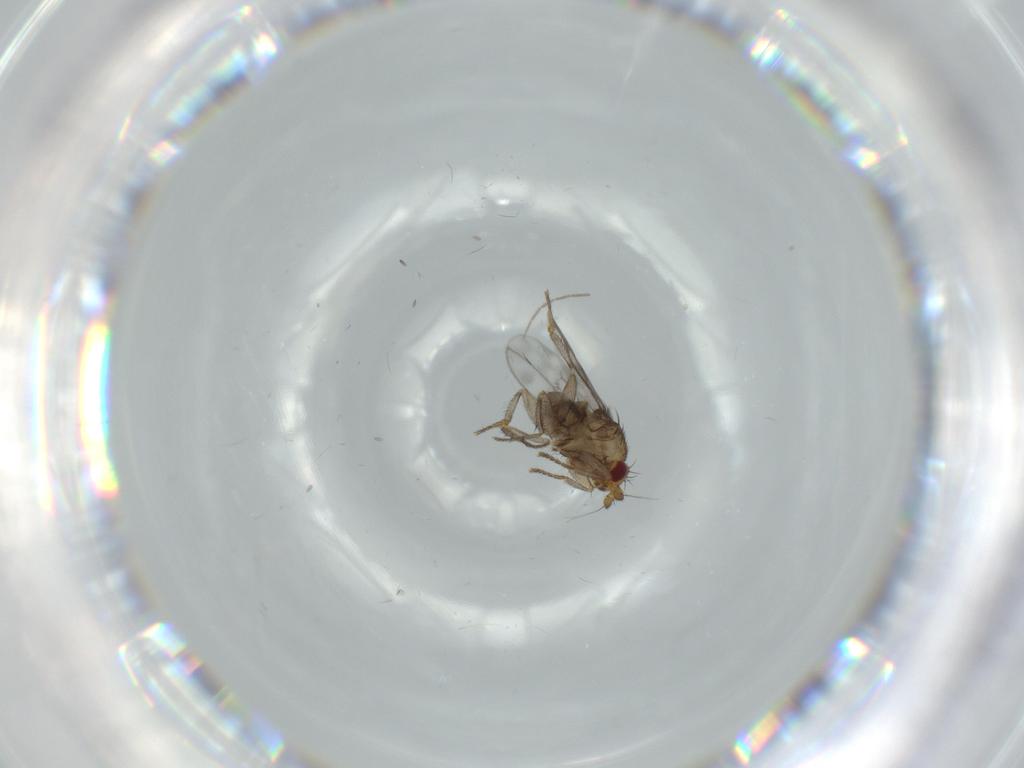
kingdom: Animalia
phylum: Arthropoda
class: Insecta
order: Diptera
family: Sphaeroceridae
